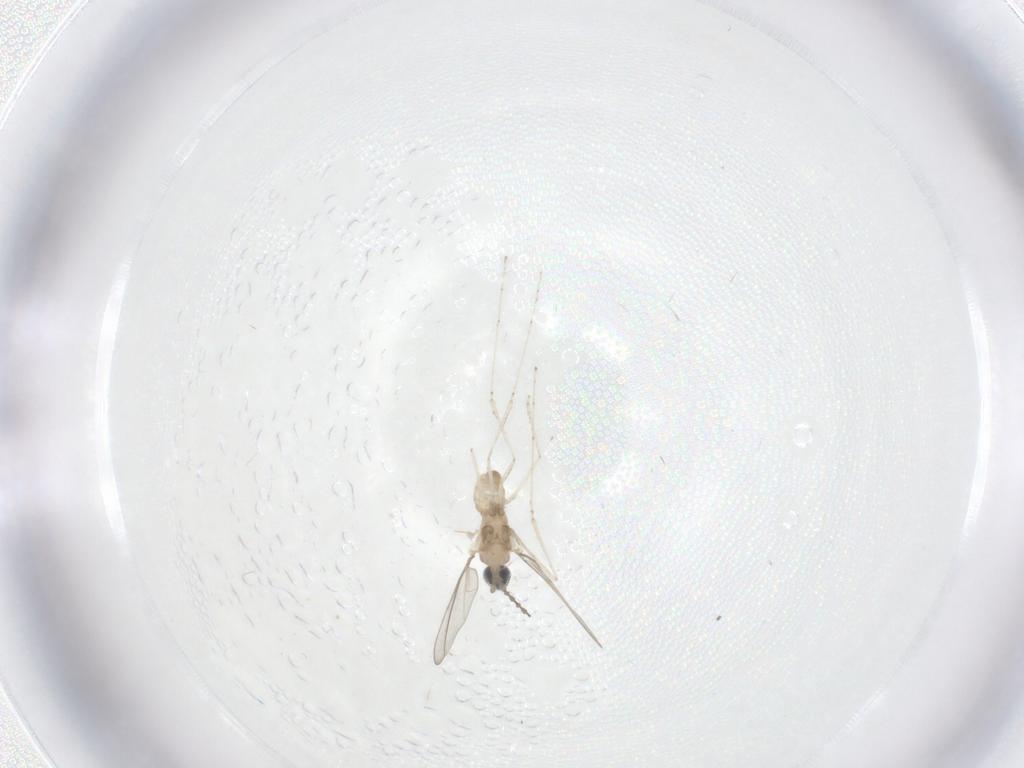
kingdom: Animalia
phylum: Arthropoda
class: Insecta
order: Diptera
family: Cecidomyiidae
